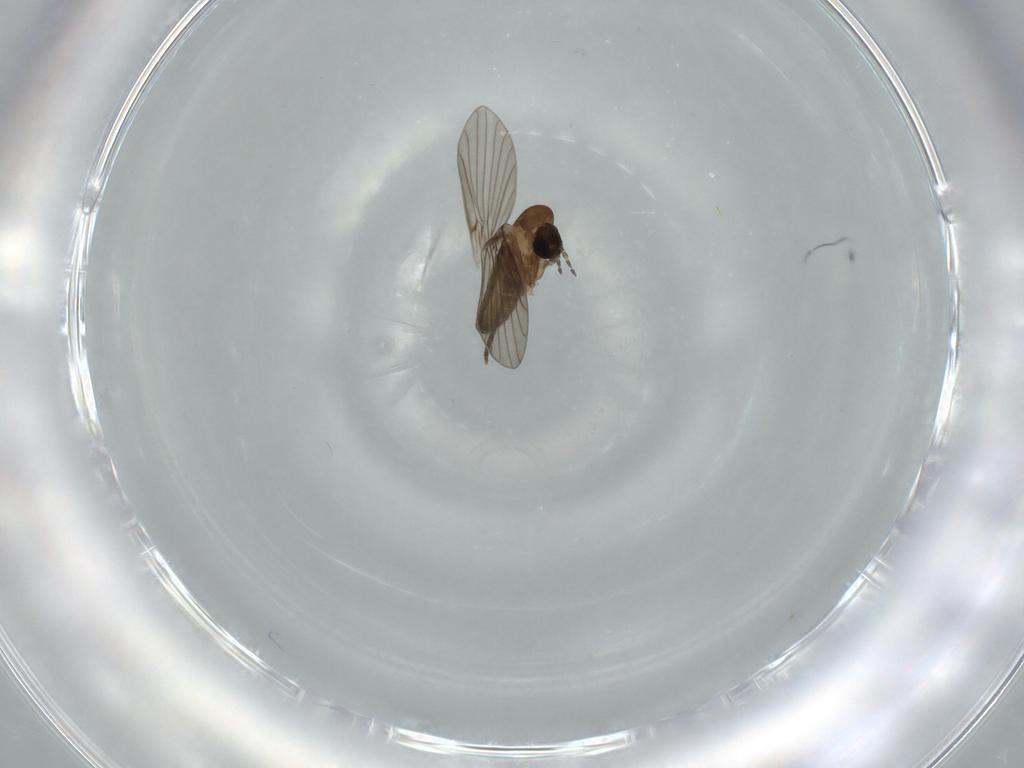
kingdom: Animalia
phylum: Arthropoda
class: Insecta
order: Diptera
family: Psychodidae
